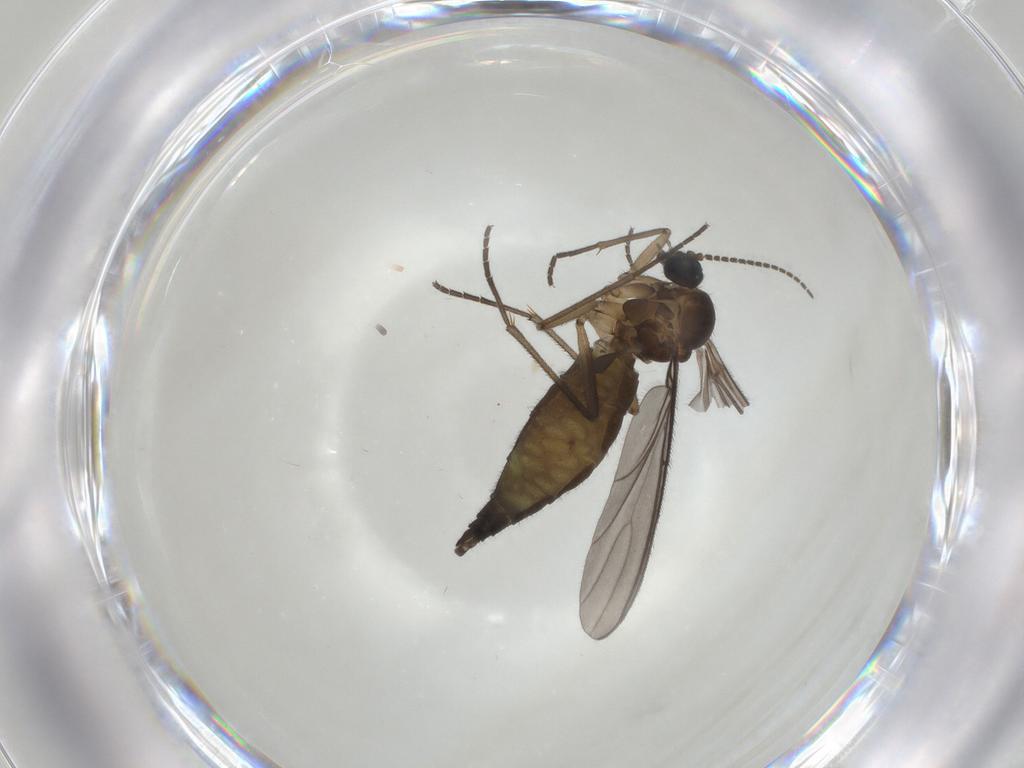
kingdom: Animalia
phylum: Arthropoda
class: Insecta
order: Diptera
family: Sciaridae
